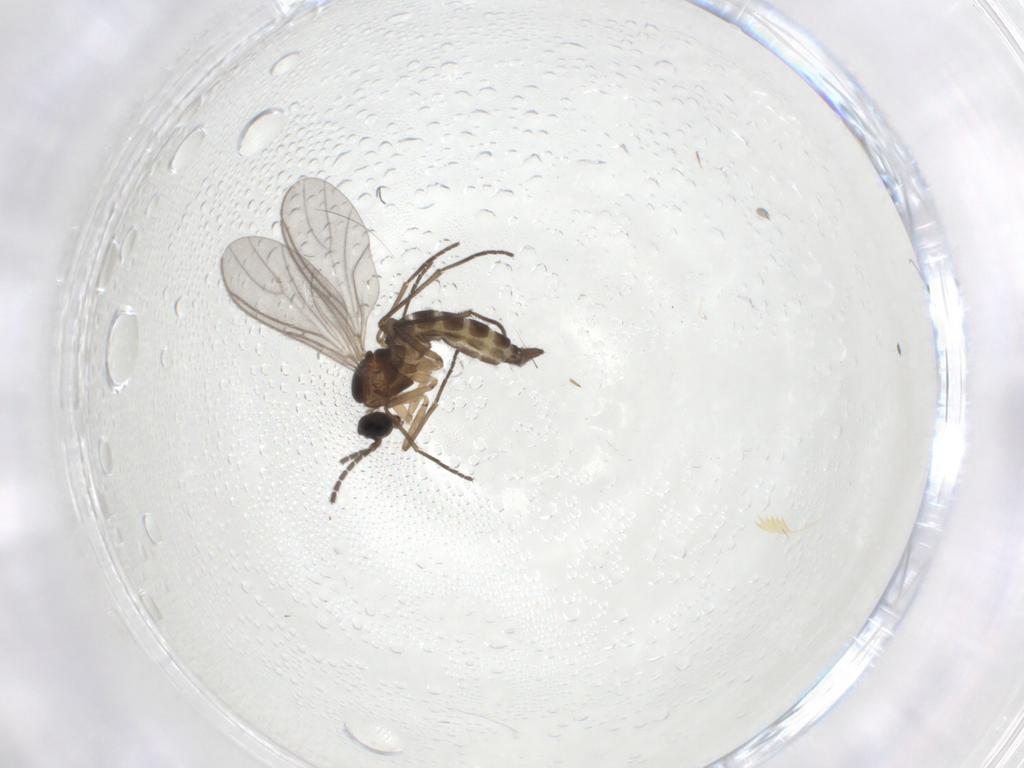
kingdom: Animalia
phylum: Arthropoda
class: Insecta
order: Diptera
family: Sciaridae
